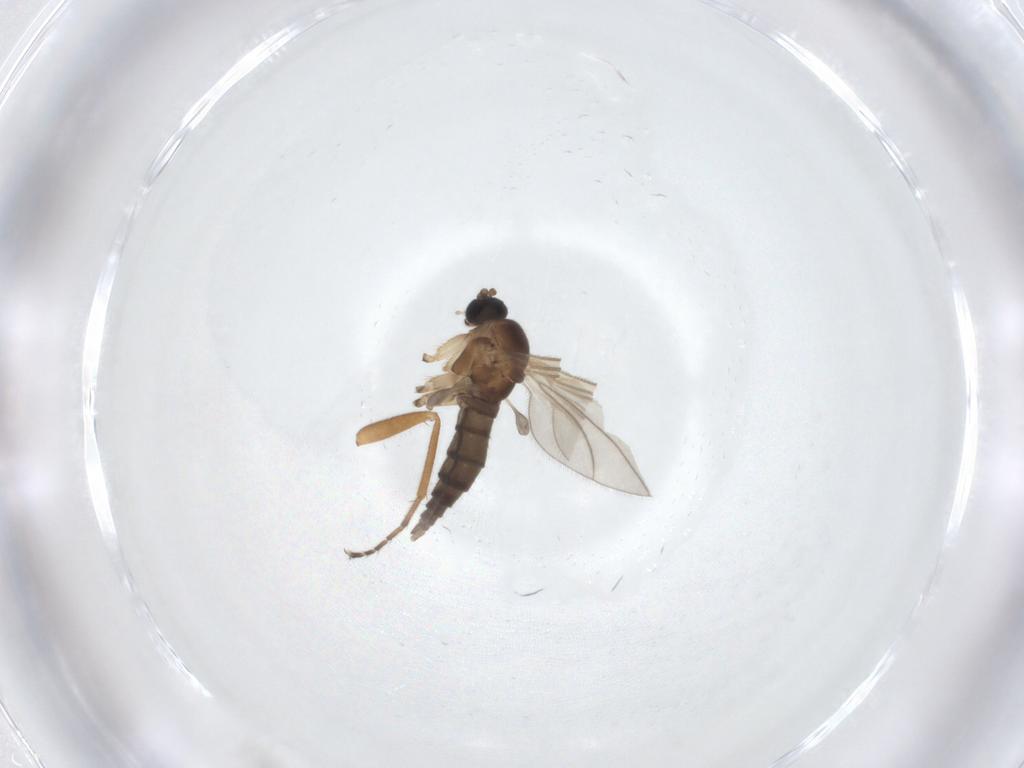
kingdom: Animalia
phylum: Arthropoda
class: Insecta
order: Diptera
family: Sciaridae
